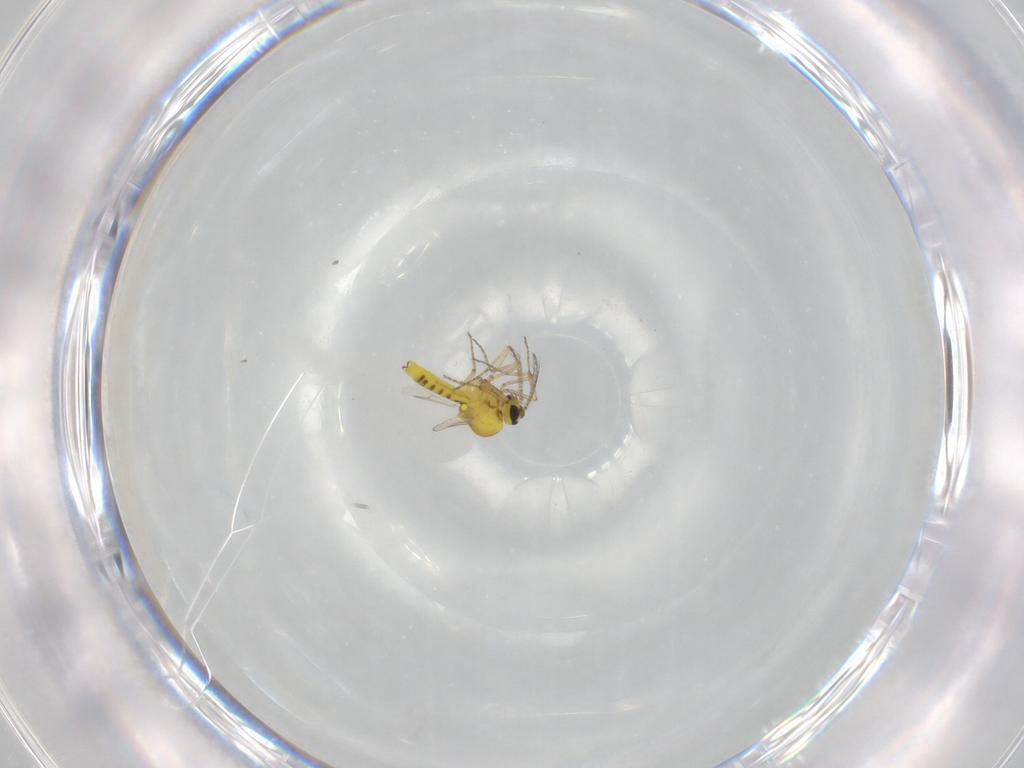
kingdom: Animalia
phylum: Arthropoda
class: Insecta
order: Diptera
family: Ceratopogonidae
